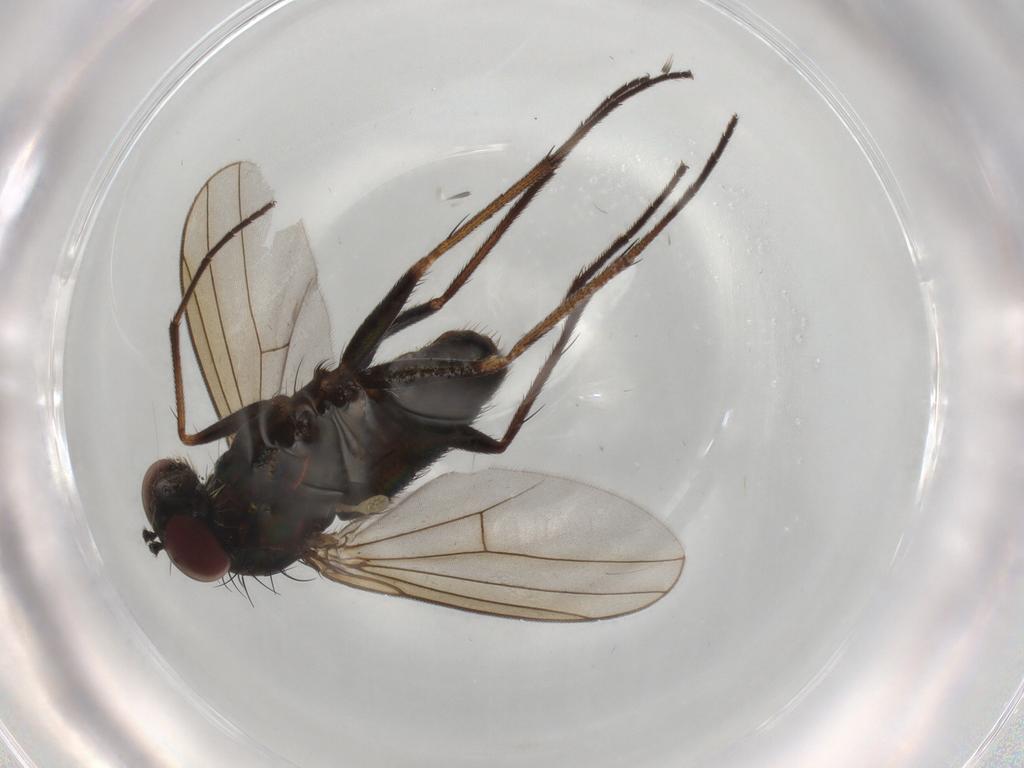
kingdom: Animalia
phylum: Arthropoda
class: Insecta
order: Diptera
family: Dolichopodidae
